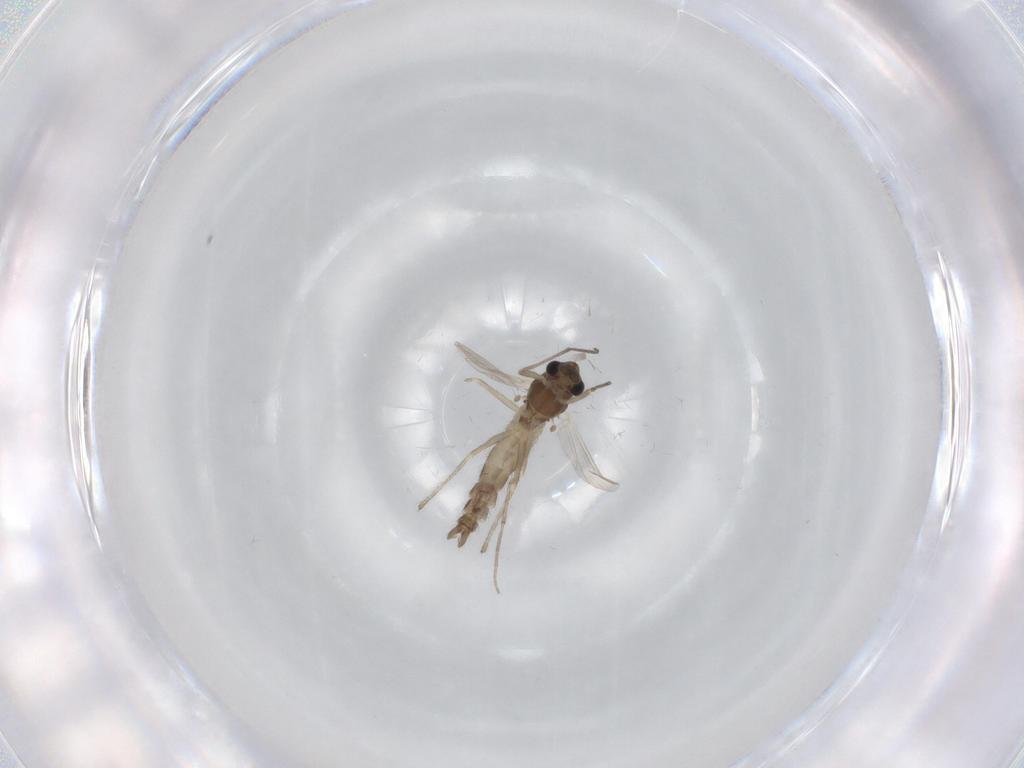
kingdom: Animalia
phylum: Arthropoda
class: Insecta
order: Diptera
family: Chironomidae
